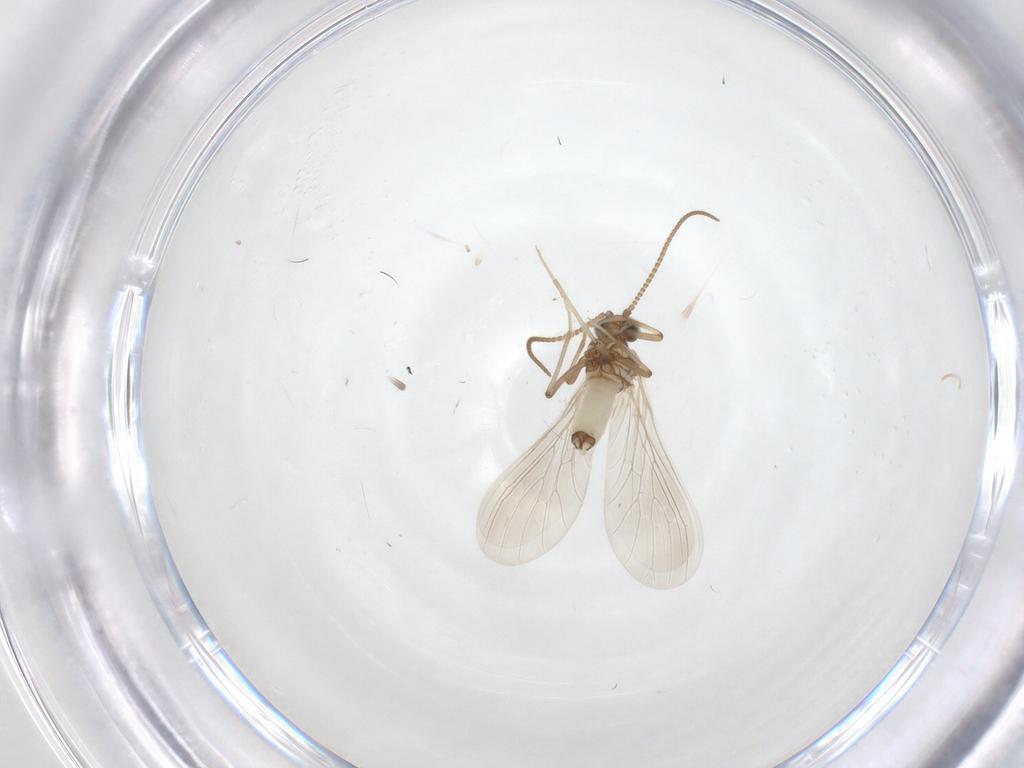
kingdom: Animalia
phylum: Arthropoda
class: Insecta
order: Neuroptera
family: Coniopterygidae
